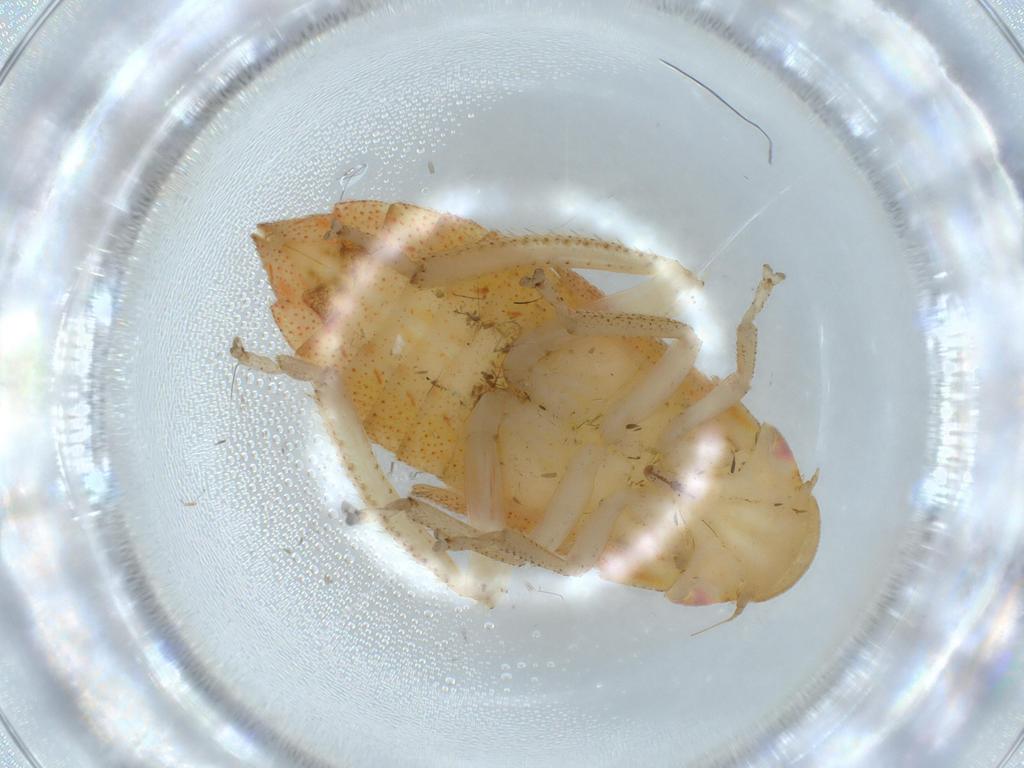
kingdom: Animalia
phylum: Arthropoda
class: Insecta
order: Hemiptera
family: Cicadellidae
